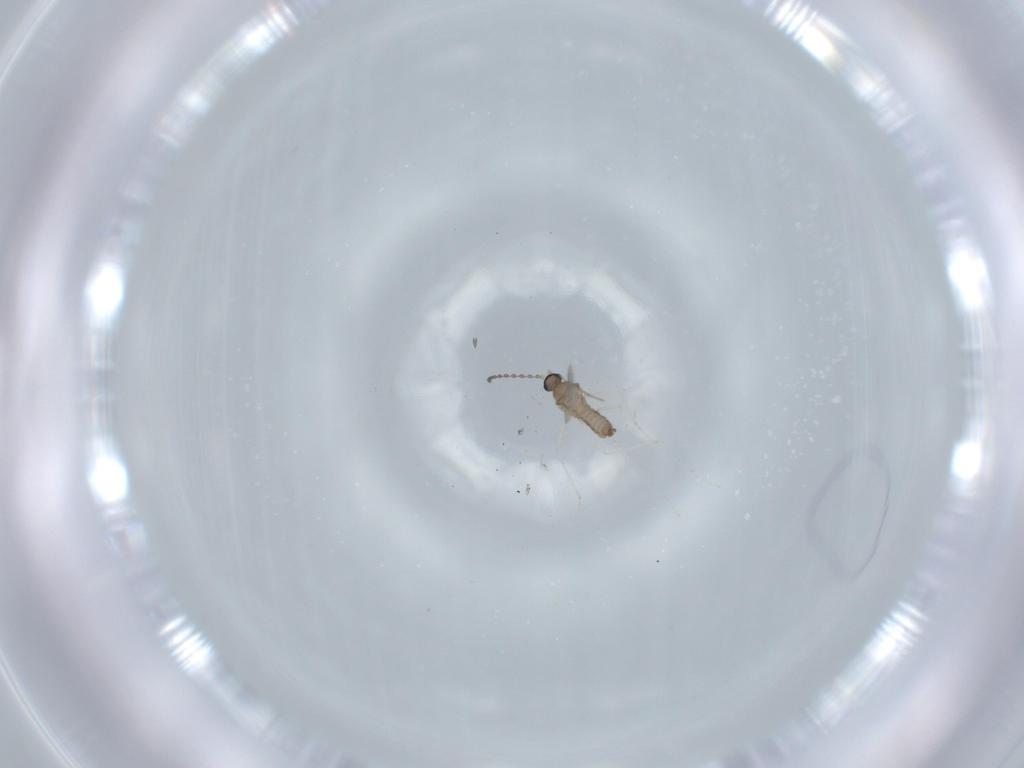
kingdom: Animalia
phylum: Arthropoda
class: Insecta
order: Diptera
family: Cecidomyiidae
